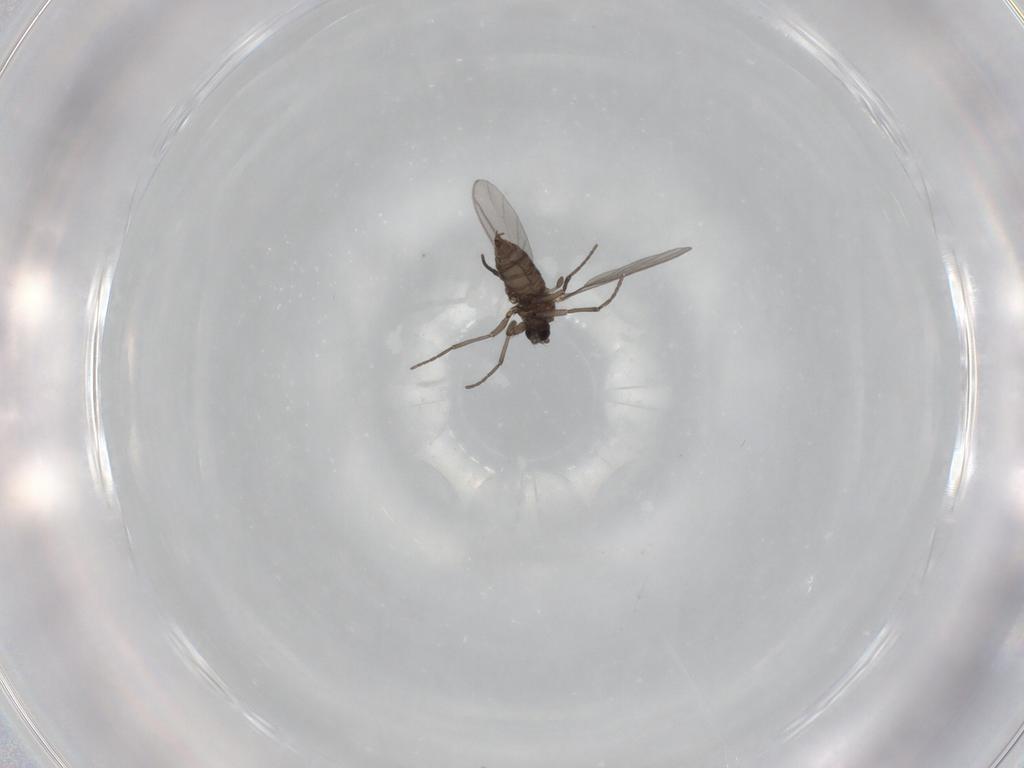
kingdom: Animalia
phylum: Arthropoda
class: Insecta
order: Diptera
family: Sciaridae
